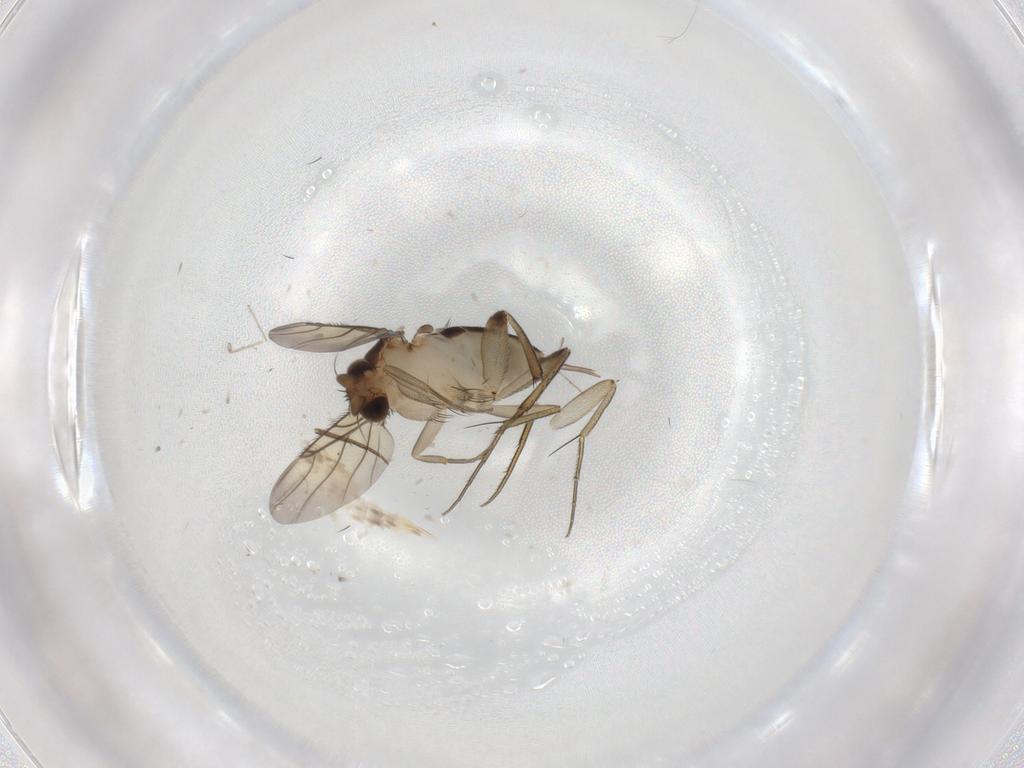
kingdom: Animalia
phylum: Arthropoda
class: Insecta
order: Diptera
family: Phoridae
